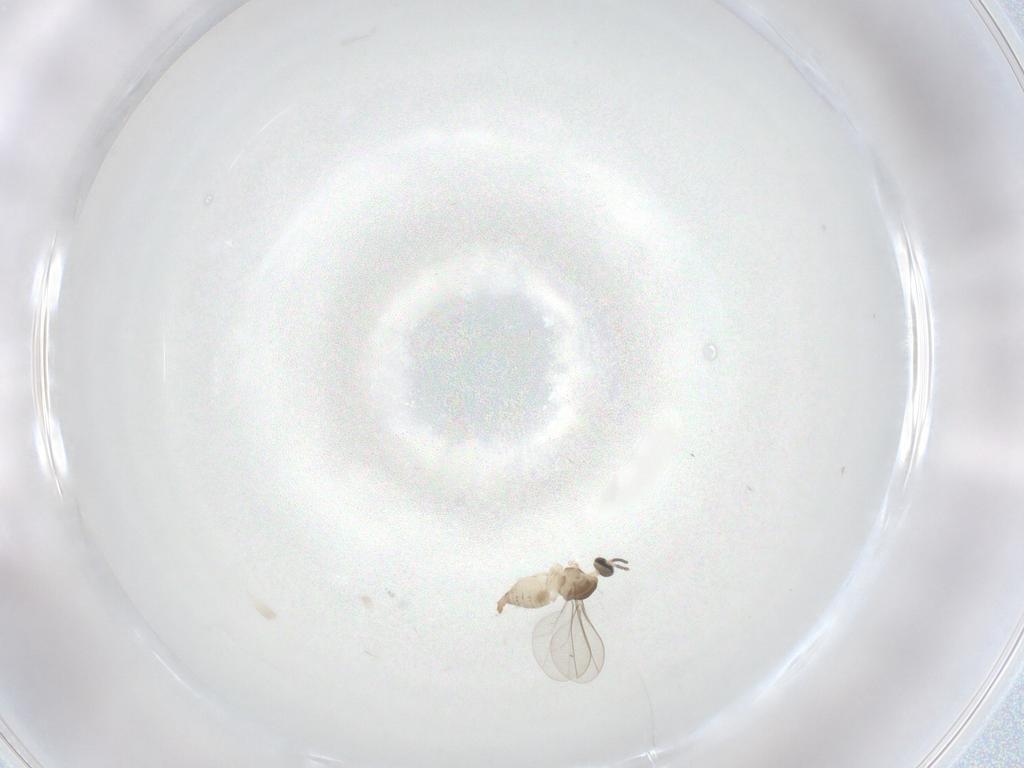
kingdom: Animalia
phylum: Arthropoda
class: Insecta
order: Diptera
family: Cecidomyiidae
